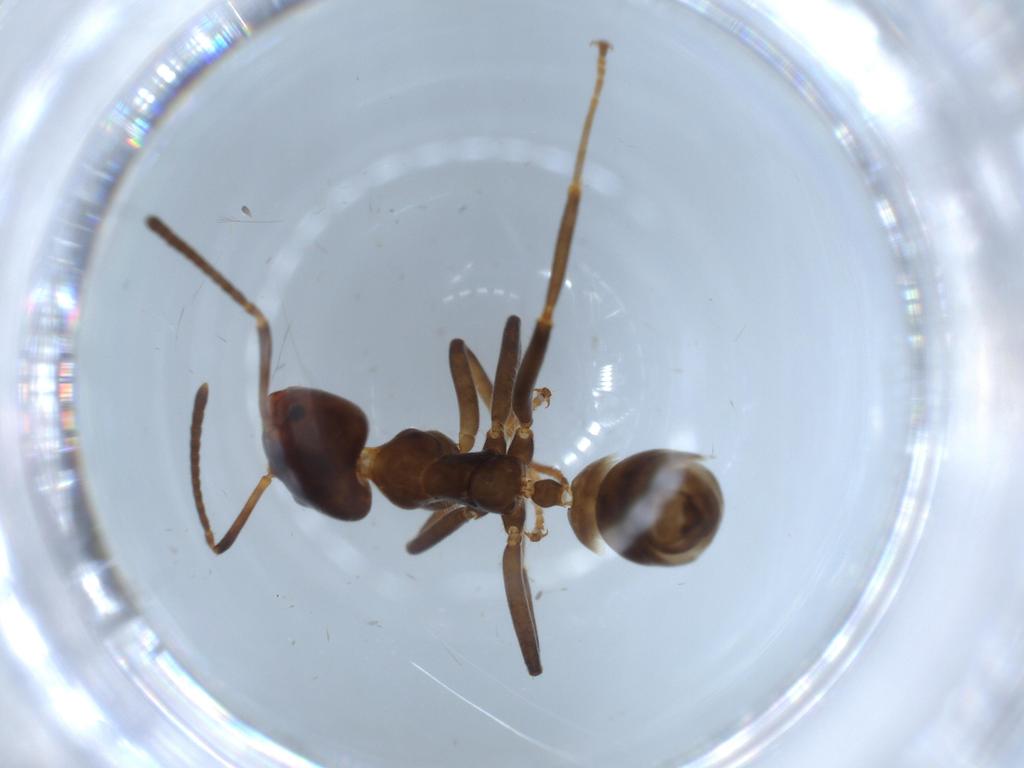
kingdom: Animalia
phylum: Arthropoda
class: Insecta
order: Hymenoptera
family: Formicidae
